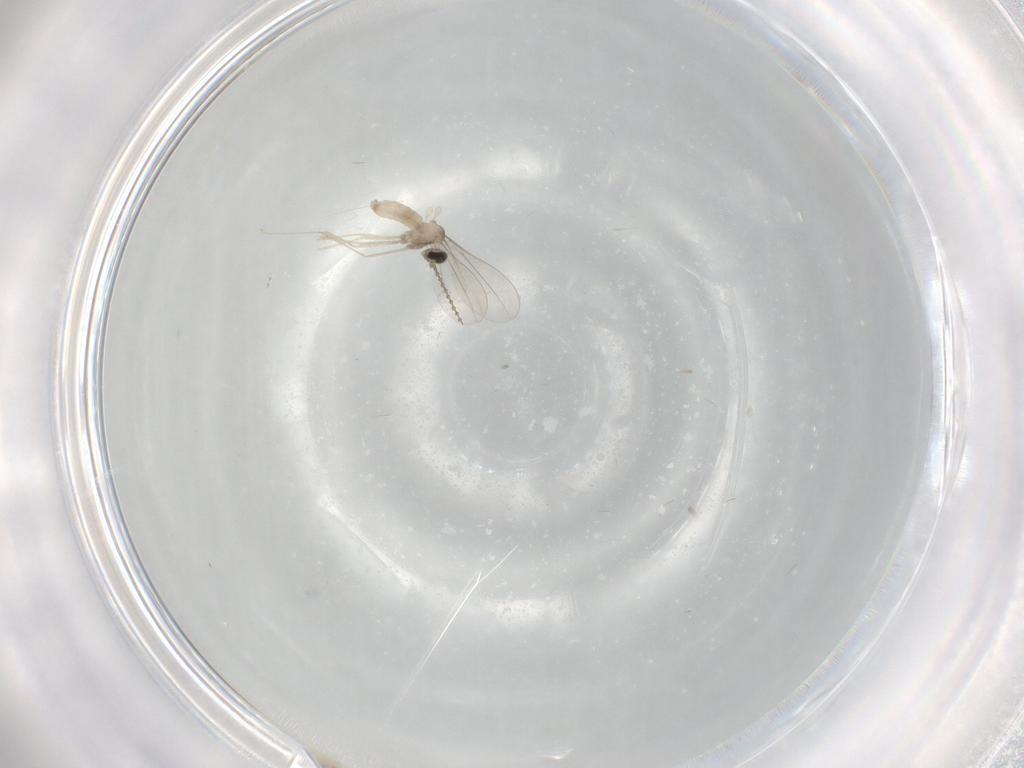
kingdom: Animalia
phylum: Arthropoda
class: Insecta
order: Diptera
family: Cecidomyiidae
